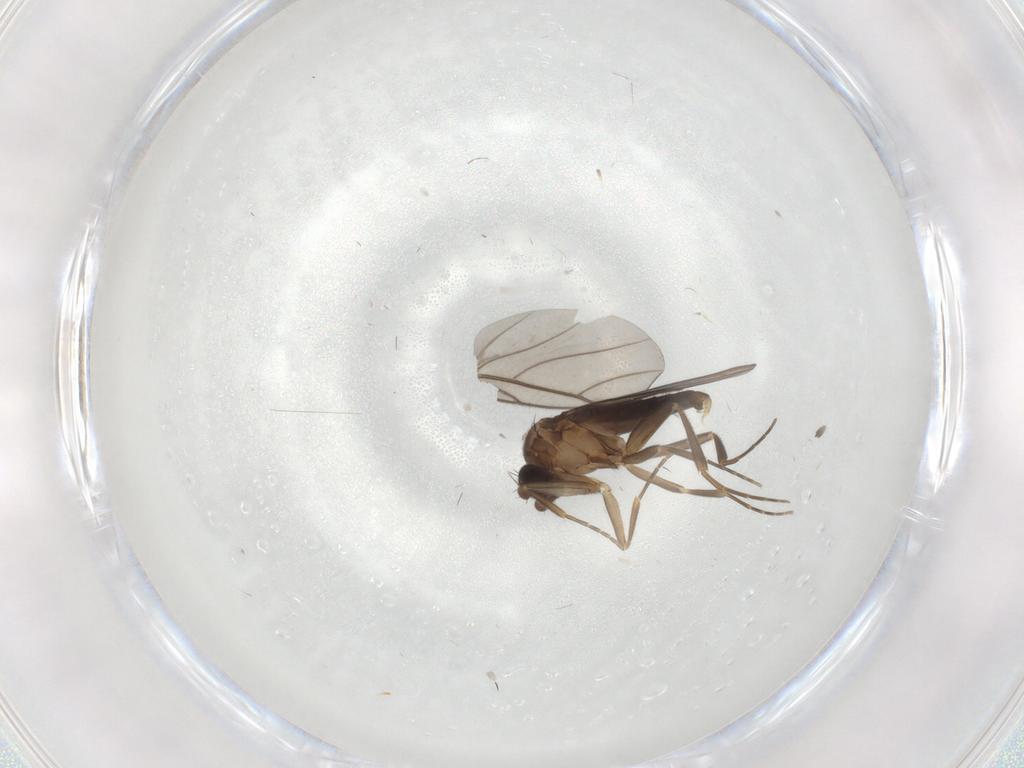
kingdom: Animalia
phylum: Arthropoda
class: Insecta
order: Diptera
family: Sciaridae
